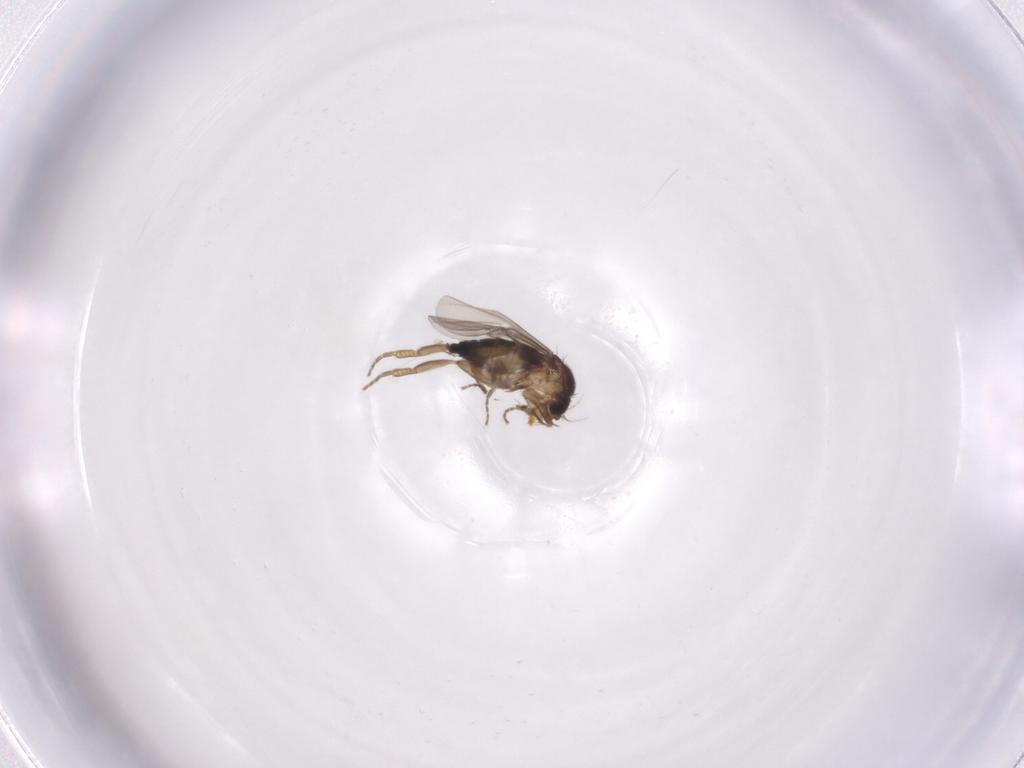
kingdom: Animalia
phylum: Arthropoda
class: Insecta
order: Diptera
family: Phoridae
